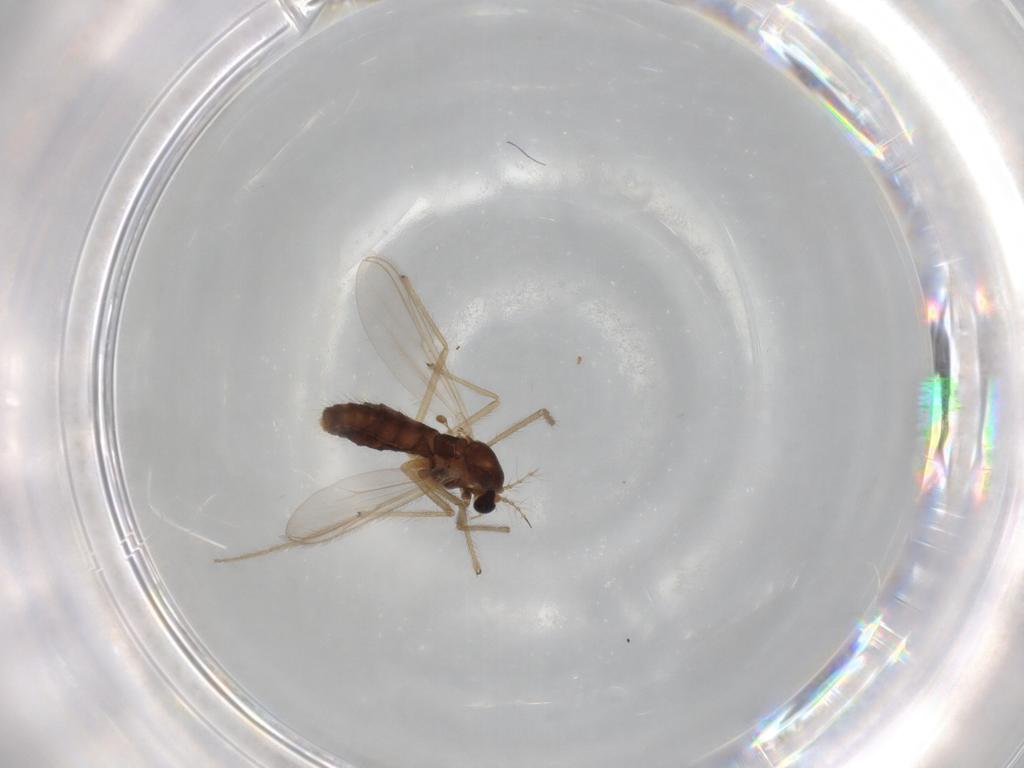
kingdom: Animalia
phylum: Arthropoda
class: Insecta
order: Diptera
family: Chironomidae
